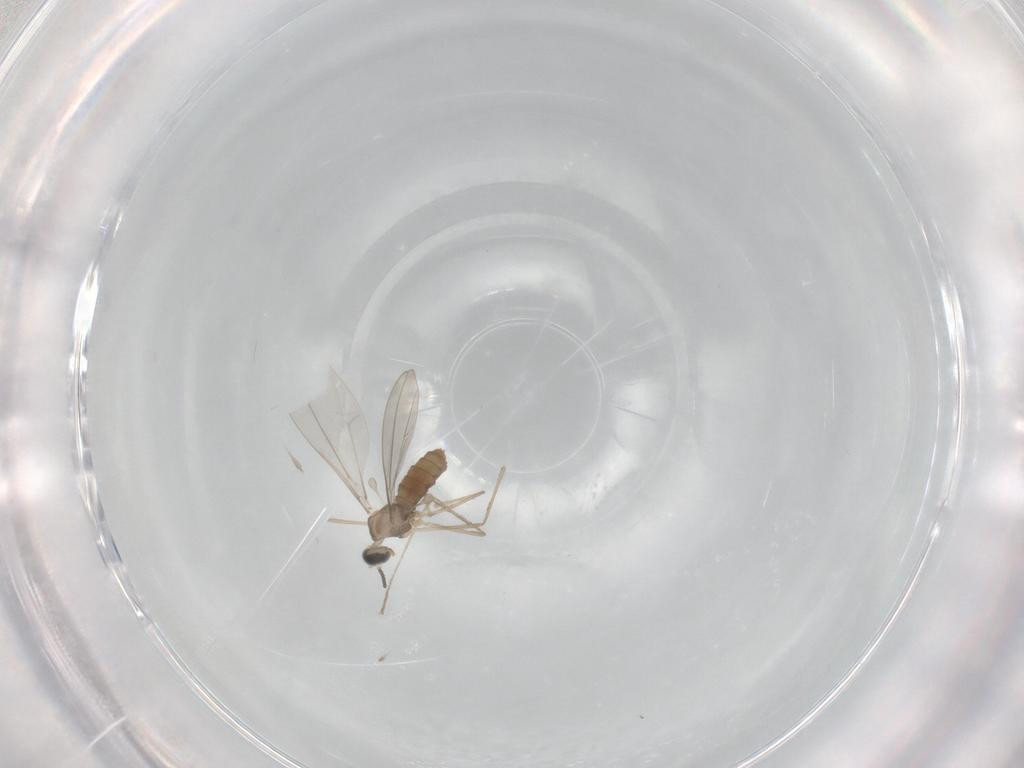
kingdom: Animalia
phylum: Arthropoda
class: Insecta
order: Diptera
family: Cecidomyiidae
